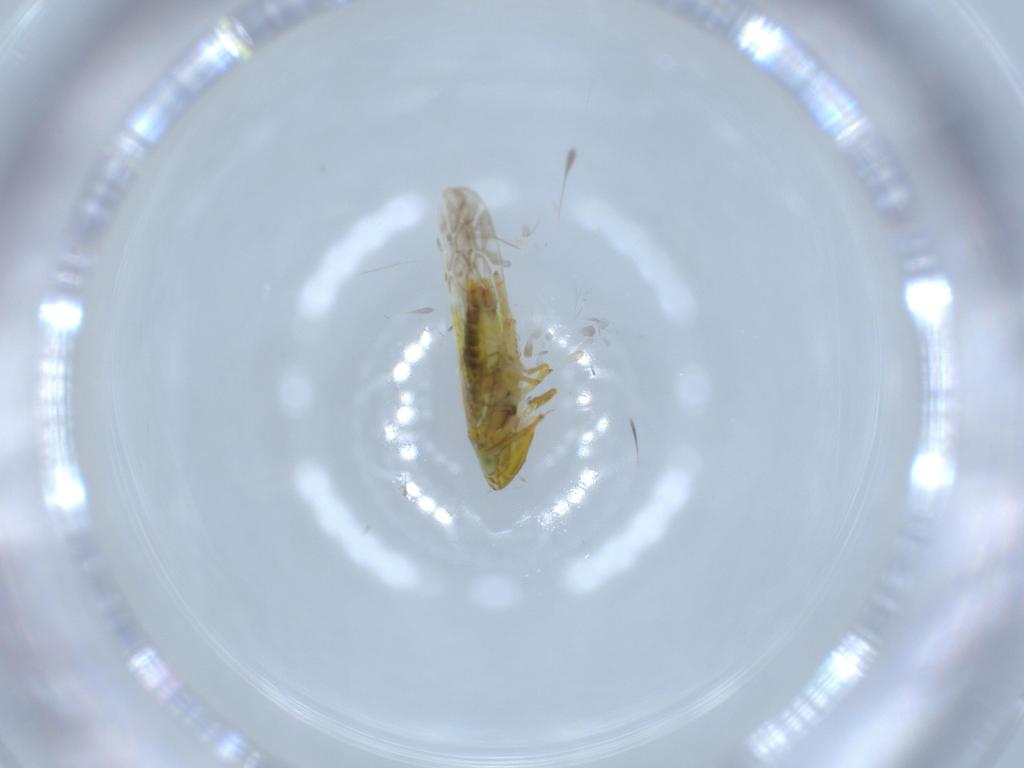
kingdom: Animalia
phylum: Arthropoda
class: Insecta
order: Hemiptera
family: Cicadellidae
